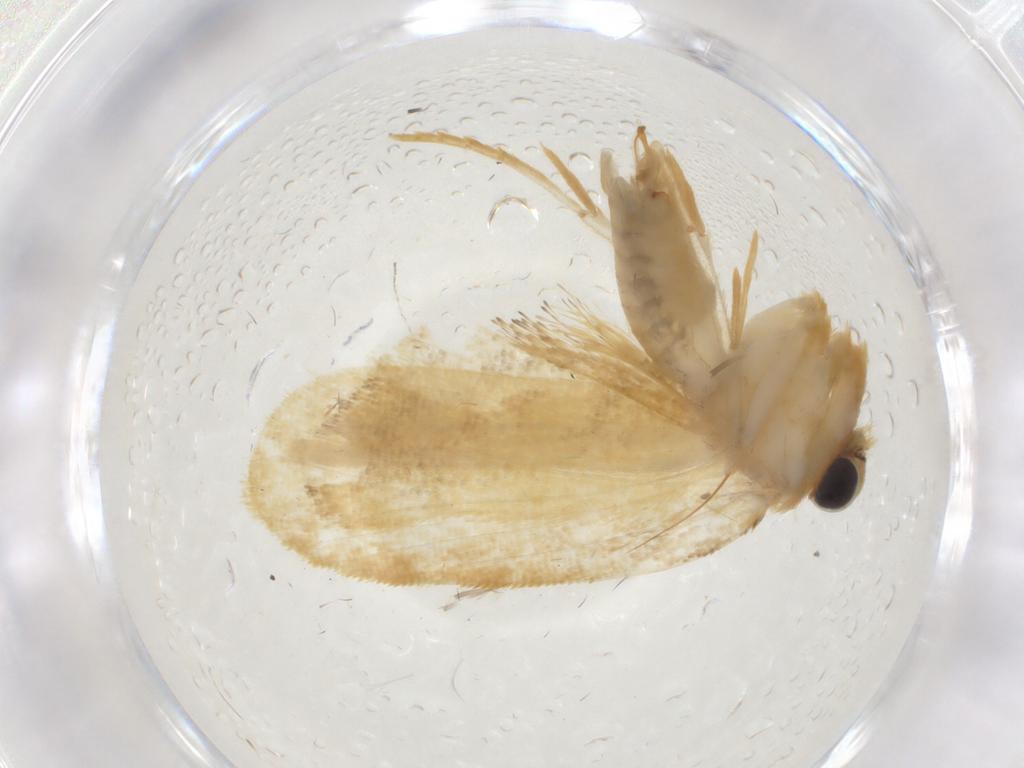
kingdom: Animalia
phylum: Arthropoda
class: Insecta
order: Lepidoptera
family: Psychidae
